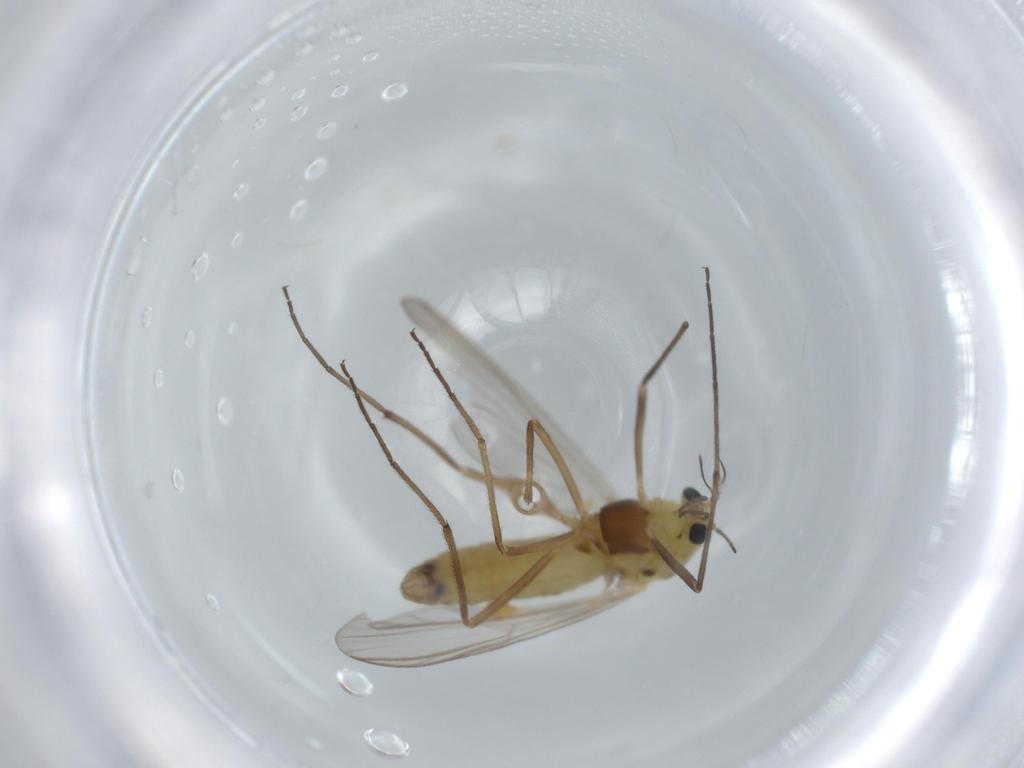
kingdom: Animalia
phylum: Arthropoda
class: Insecta
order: Diptera
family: Chironomidae
